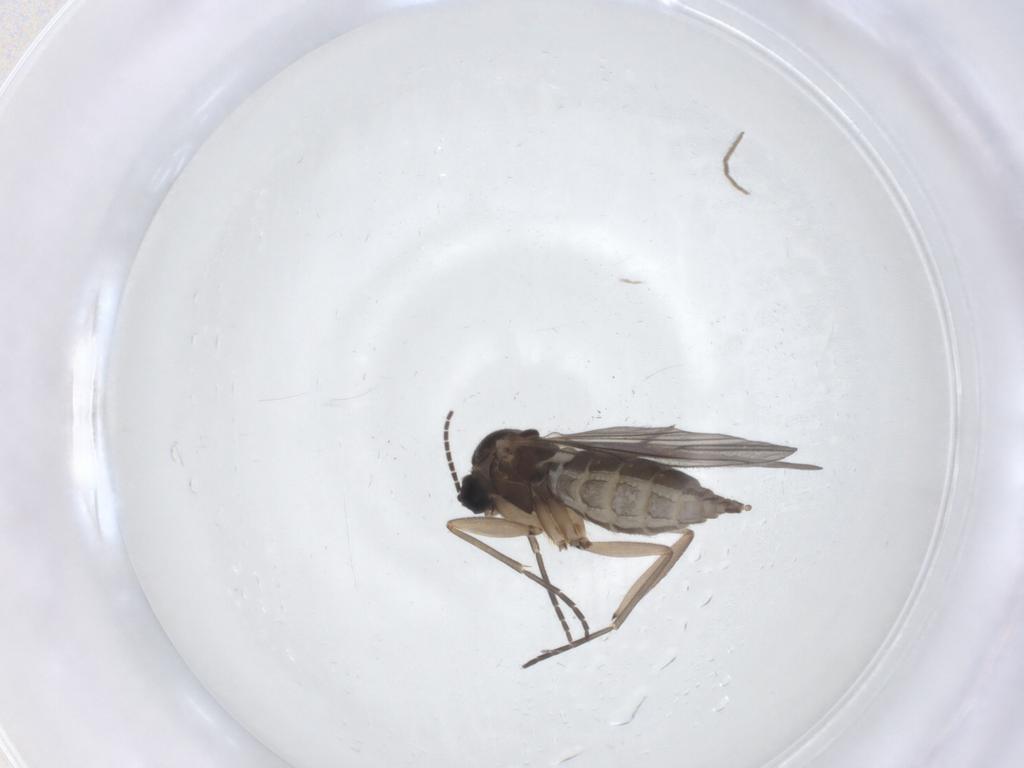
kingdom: Animalia
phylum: Arthropoda
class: Insecta
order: Diptera
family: Sciaridae
